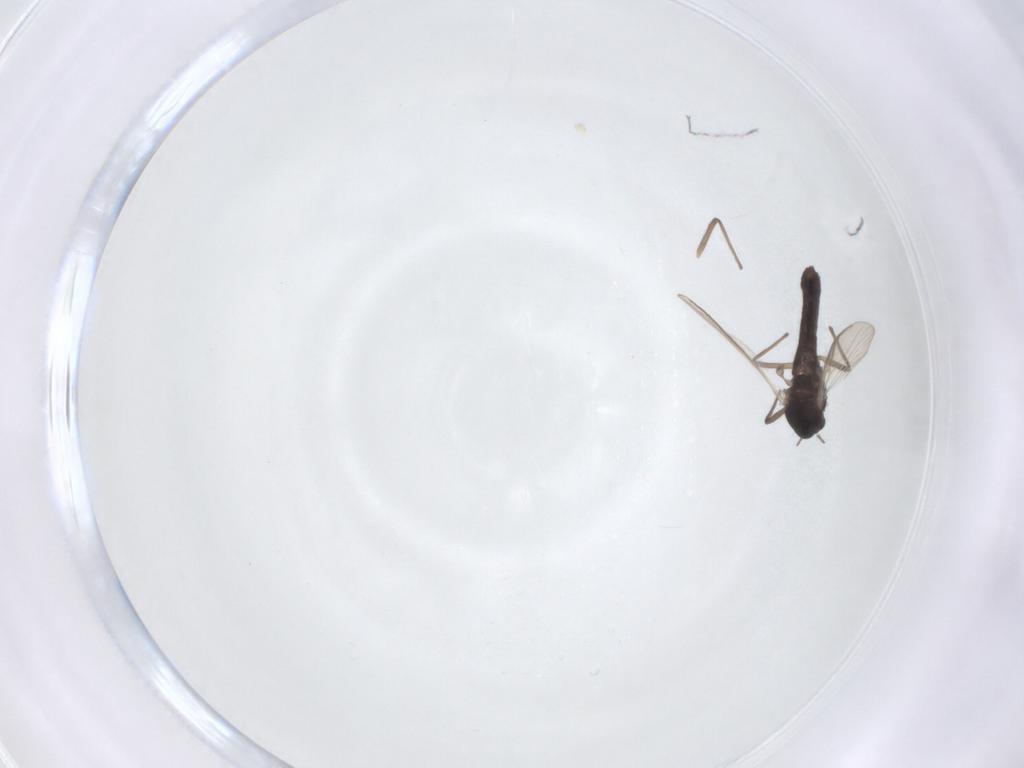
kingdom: Animalia
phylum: Arthropoda
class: Insecta
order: Diptera
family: Chironomidae
